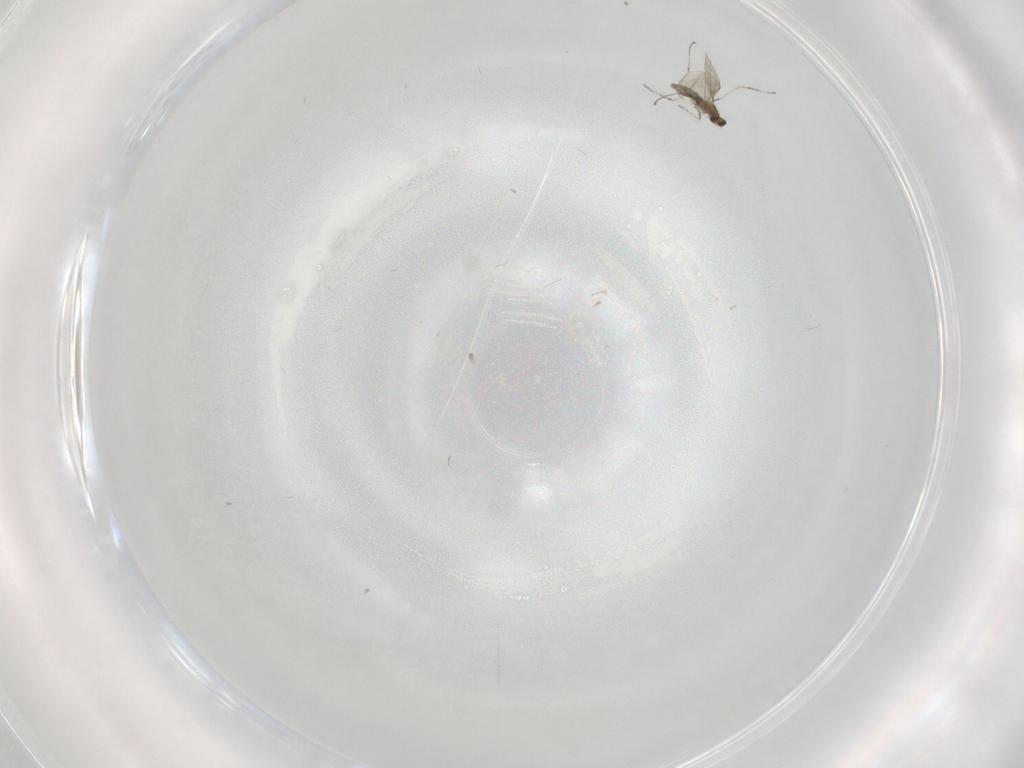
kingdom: Animalia
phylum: Arthropoda
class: Insecta
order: Diptera
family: Cecidomyiidae
